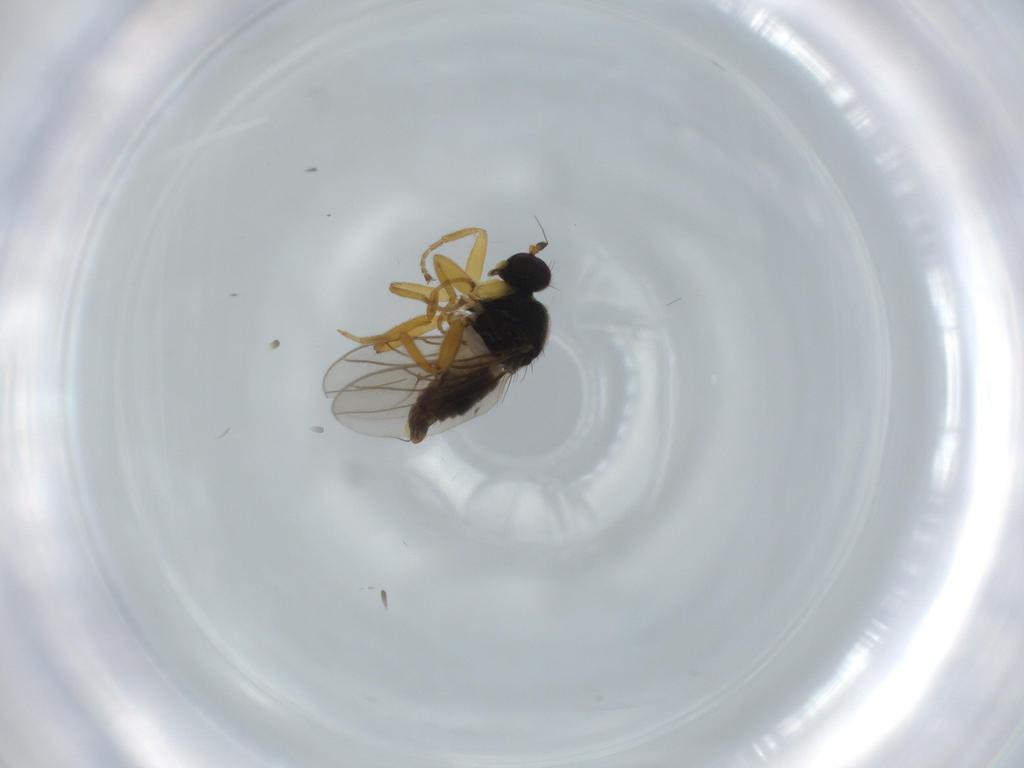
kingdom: Animalia
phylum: Arthropoda
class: Insecta
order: Diptera
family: Hybotidae
